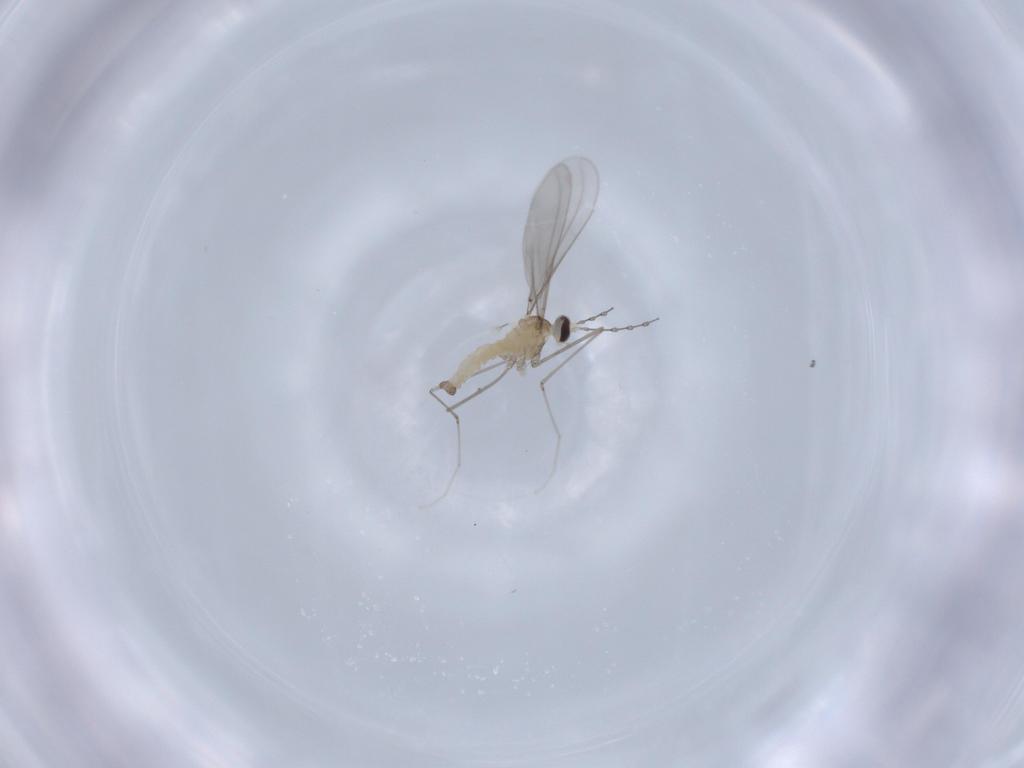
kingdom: Animalia
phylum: Arthropoda
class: Insecta
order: Diptera
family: Ceratopogonidae
